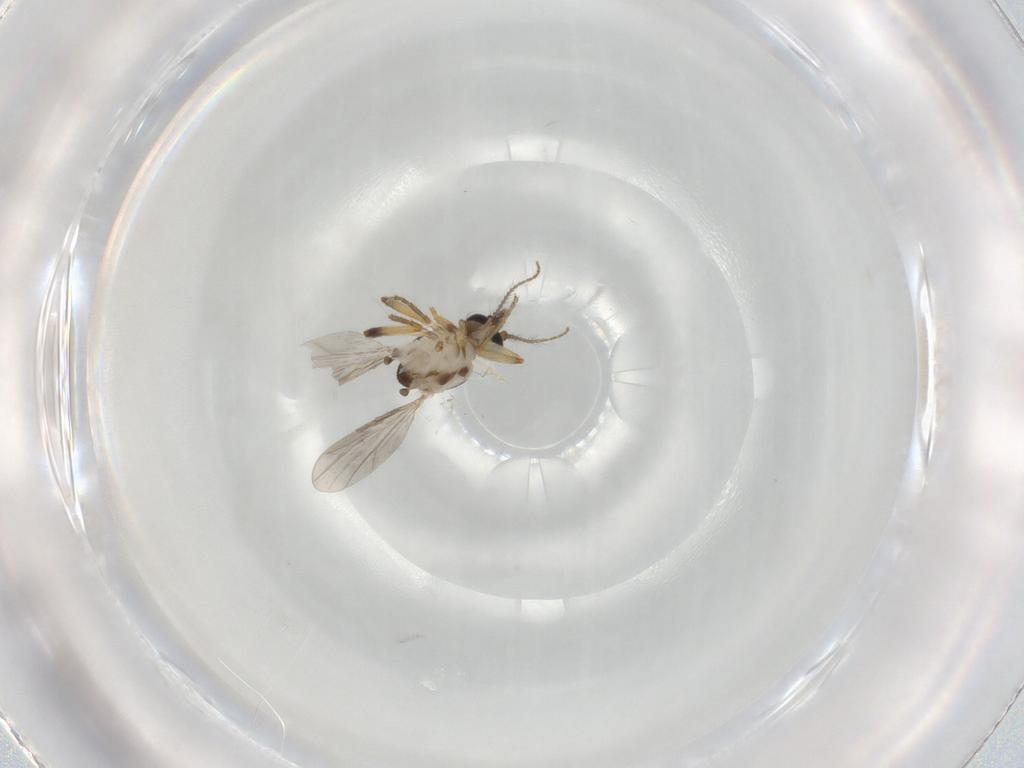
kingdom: Animalia
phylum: Arthropoda
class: Insecta
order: Diptera
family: Ceratopogonidae
